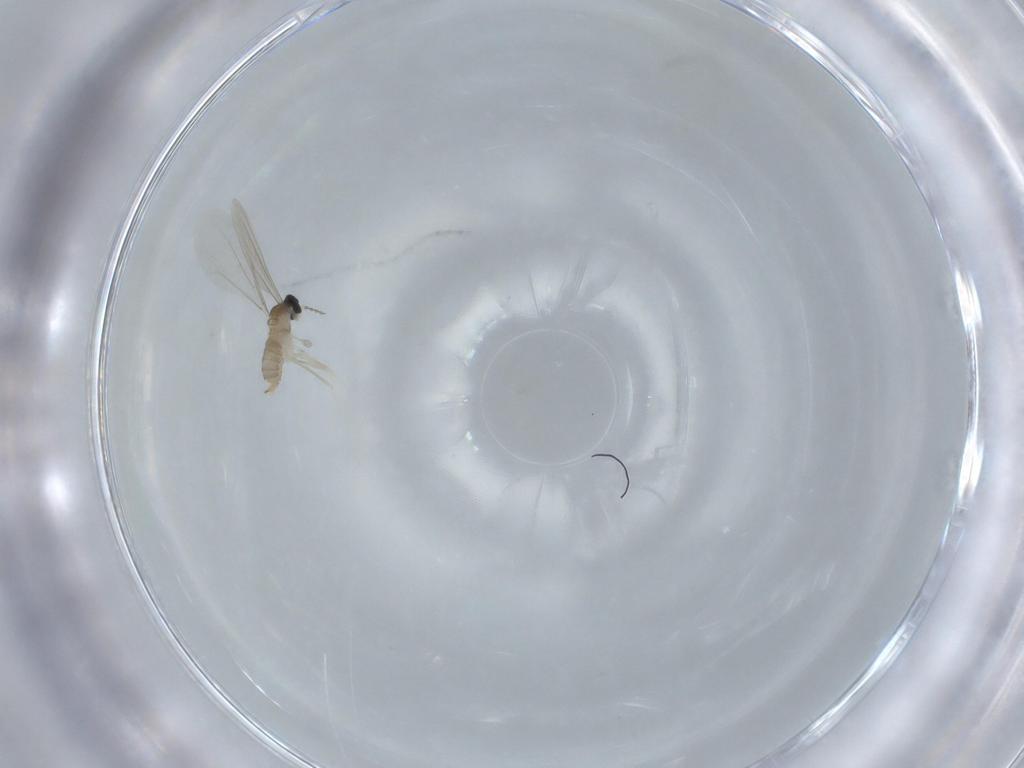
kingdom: Animalia
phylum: Arthropoda
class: Insecta
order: Diptera
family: Cecidomyiidae
